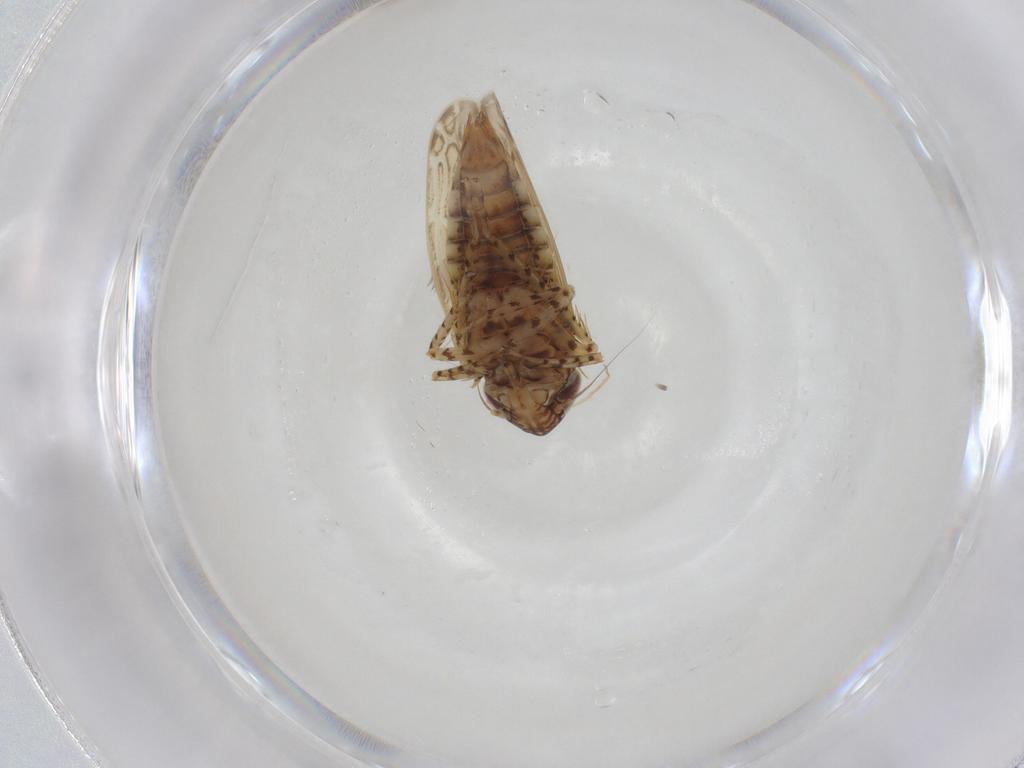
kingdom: Animalia
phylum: Arthropoda
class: Insecta
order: Hemiptera
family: Cicadellidae
